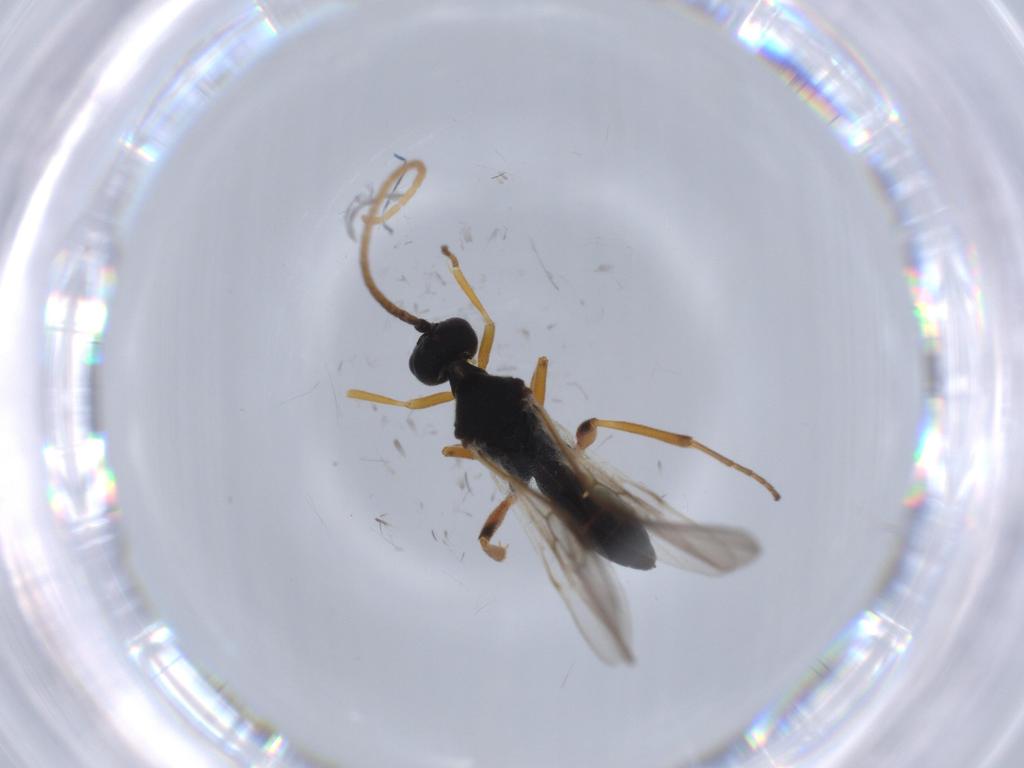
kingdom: Animalia
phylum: Arthropoda
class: Insecta
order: Hymenoptera
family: Braconidae
